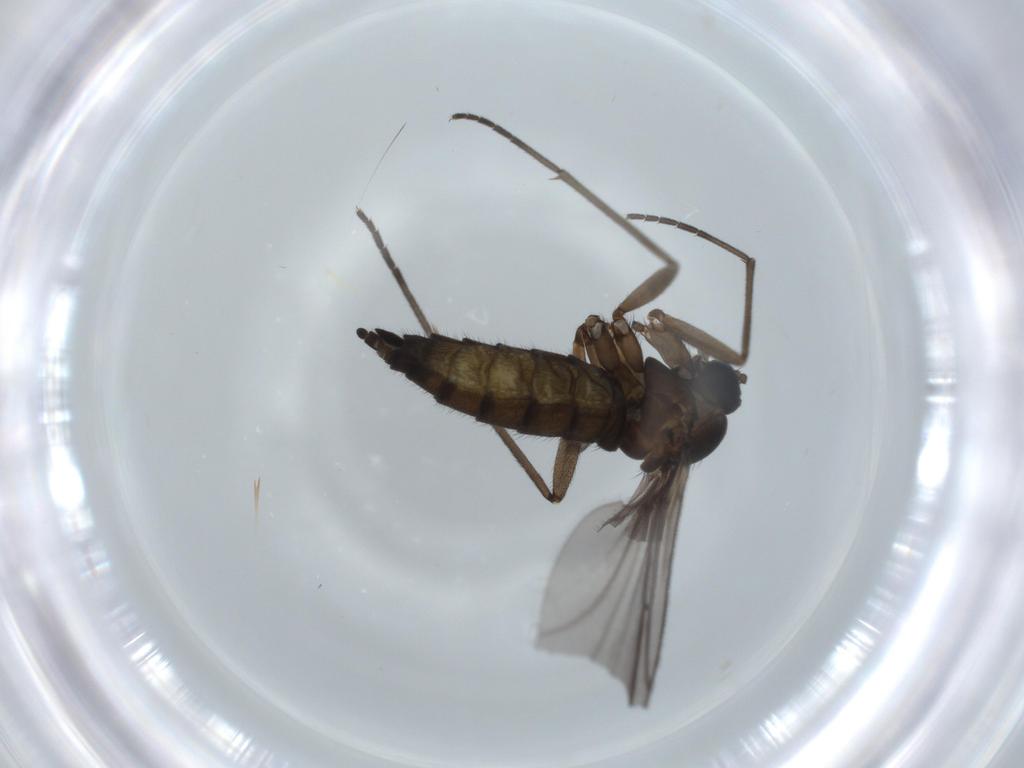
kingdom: Animalia
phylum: Arthropoda
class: Insecta
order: Diptera
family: Sciaridae
